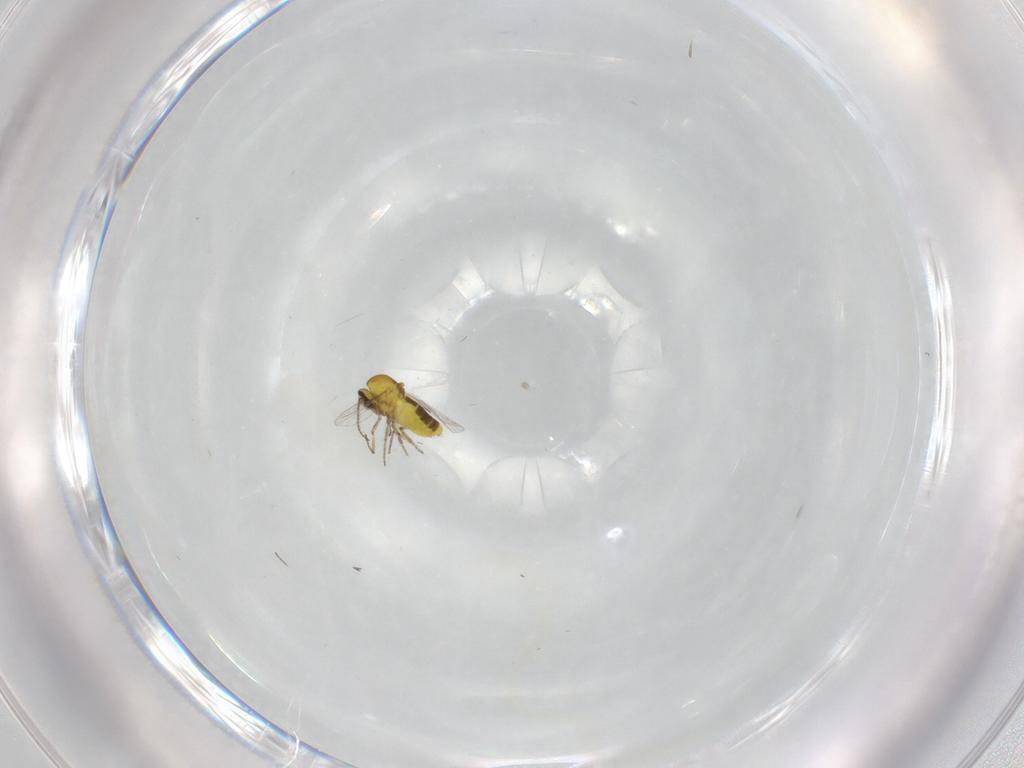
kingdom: Animalia
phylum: Arthropoda
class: Insecta
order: Diptera
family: Ceratopogonidae
